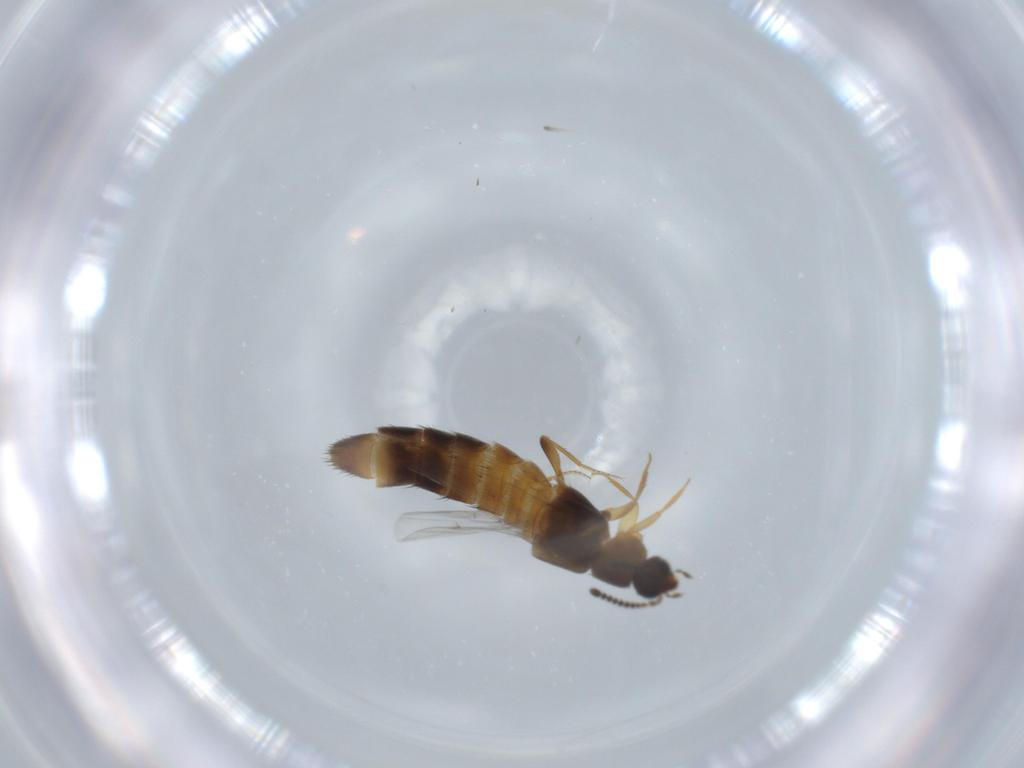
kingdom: Animalia
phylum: Arthropoda
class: Insecta
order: Coleoptera
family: Staphylinidae
